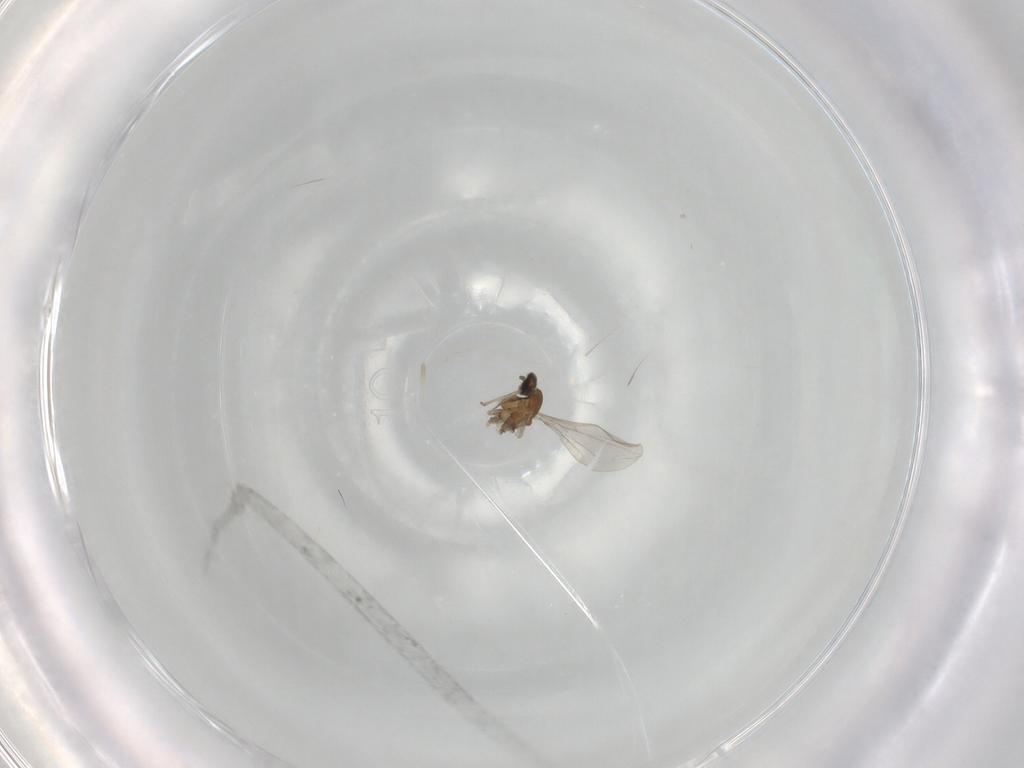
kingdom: Animalia
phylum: Arthropoda
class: Insecta
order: Diptera
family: Cecidomyiidae
